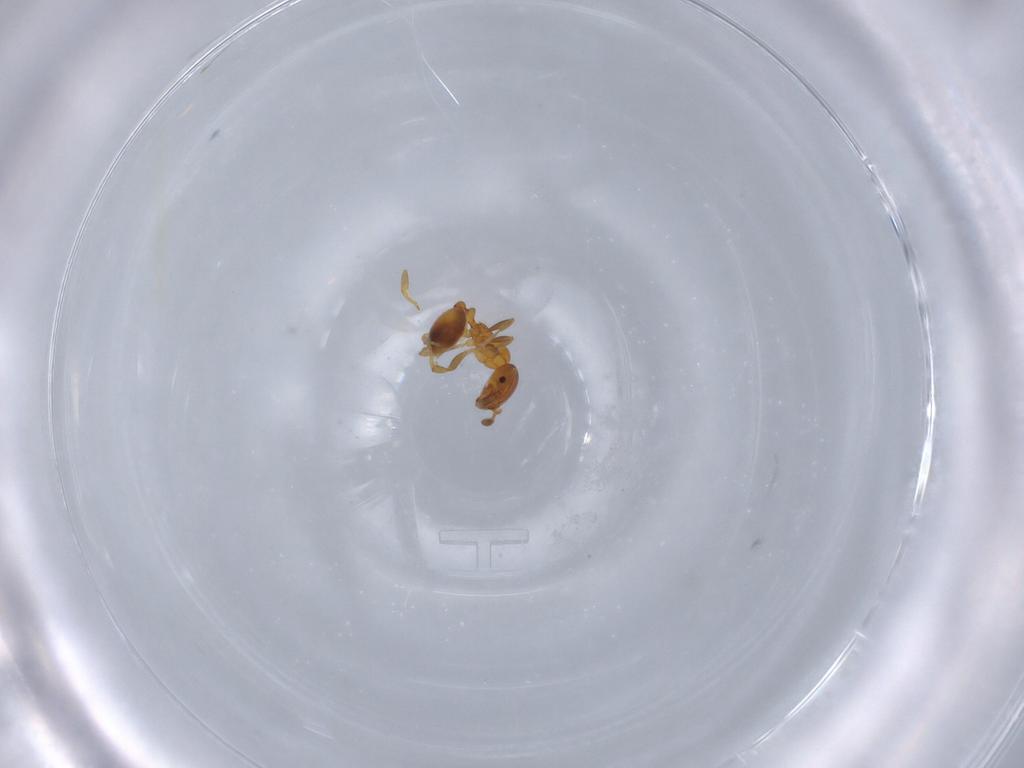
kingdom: Animalia
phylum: Arthropoda
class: Insecta
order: Hymenoptera
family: Formicidae
